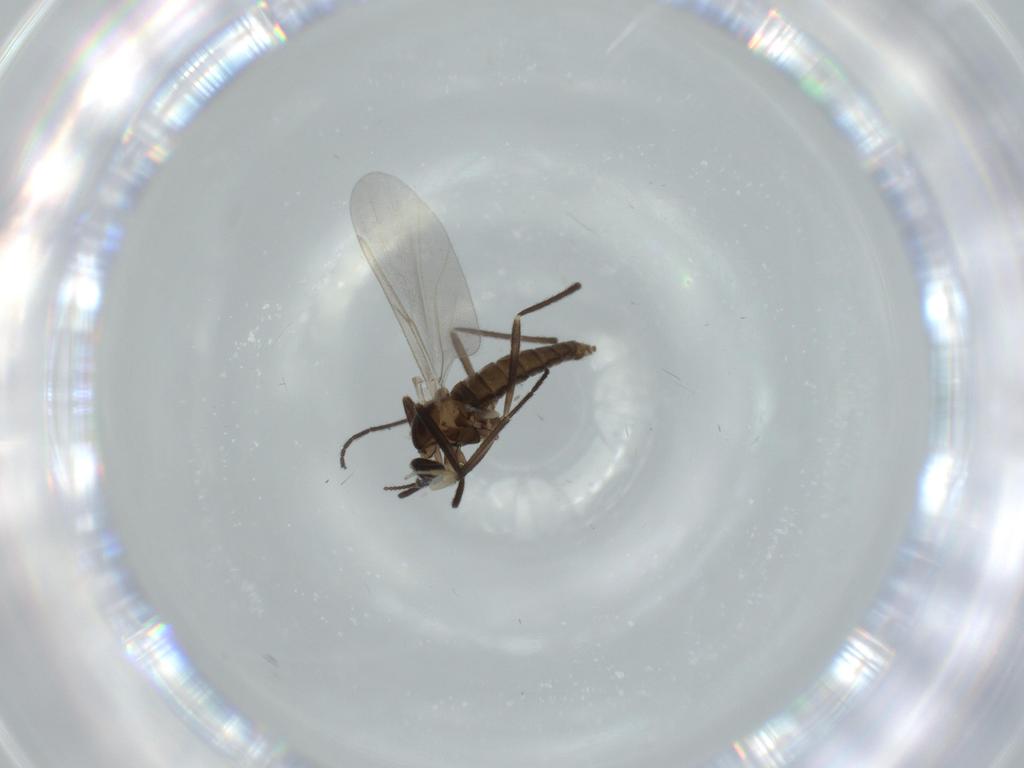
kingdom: Animalia
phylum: Arthropoda
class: Insecta
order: Diptera
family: Cecidomyiidae
